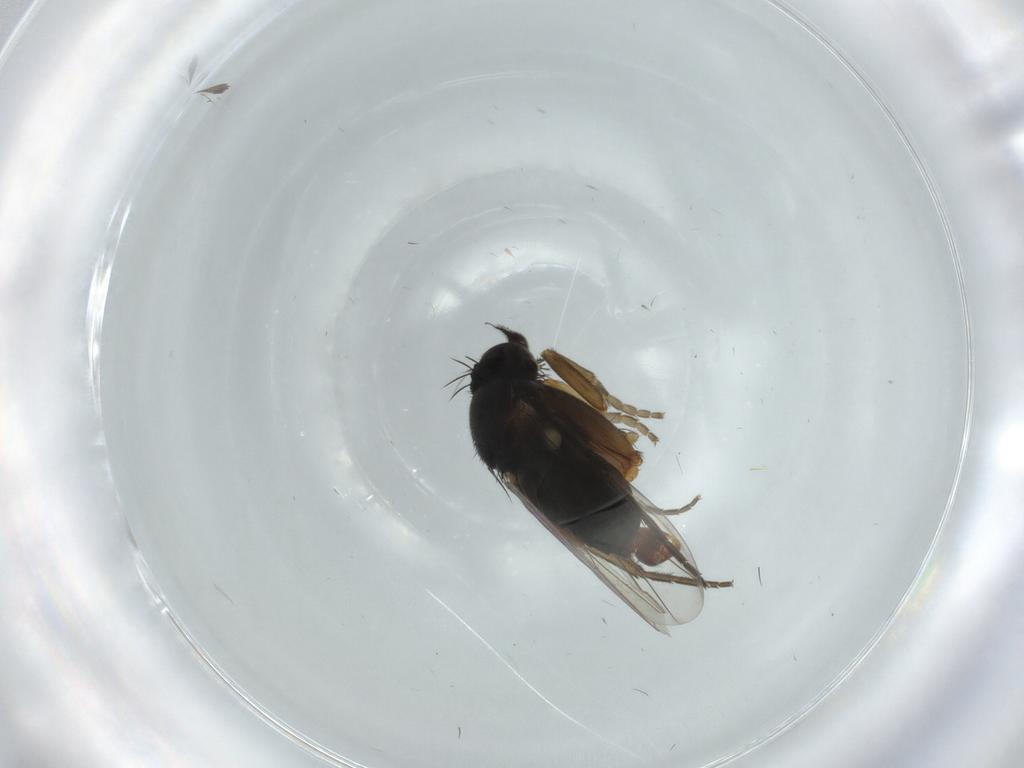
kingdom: Animalia
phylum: Arthropoda
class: Insecta
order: Diptera
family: Phoridae
